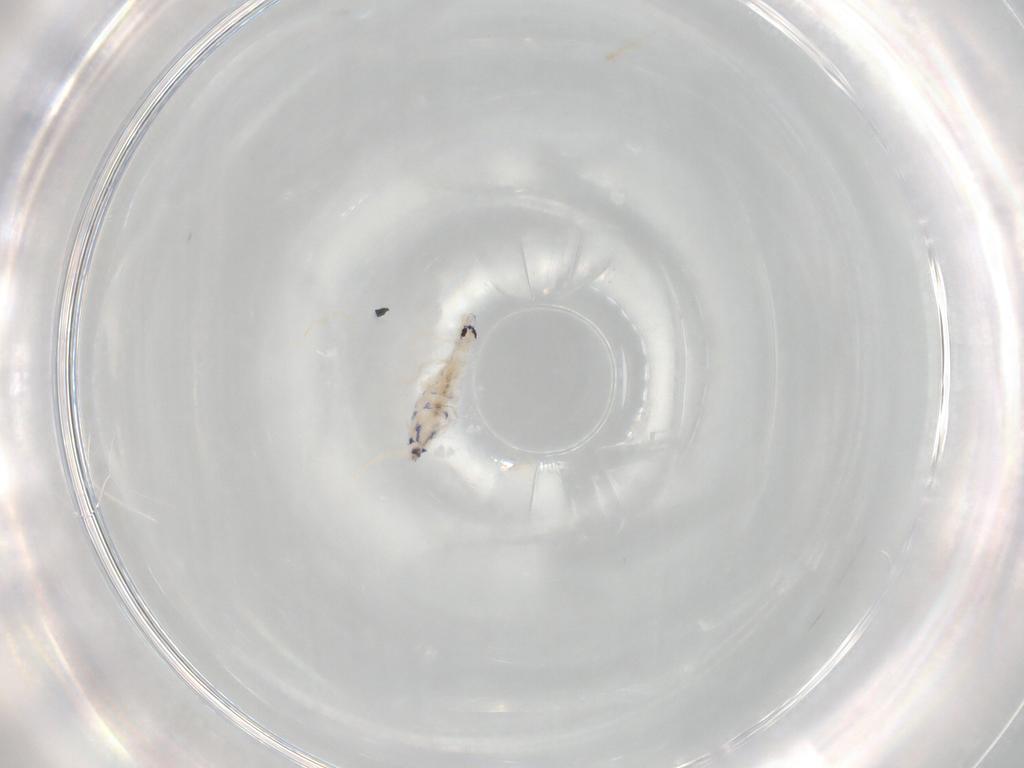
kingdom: Animalia
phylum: Arthropoda
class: Collembola
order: Entomobryomorpha
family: Entomobryidae
